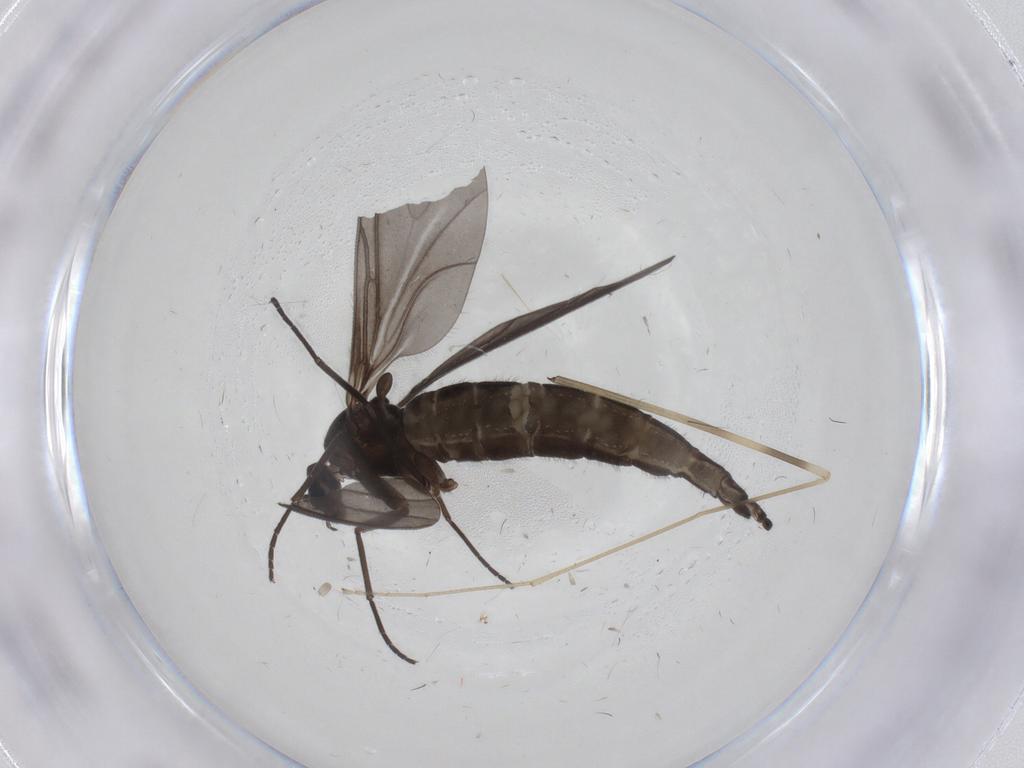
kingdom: Animalia
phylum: Arthropoda
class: Insecta
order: Diptera
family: Sciaridae
